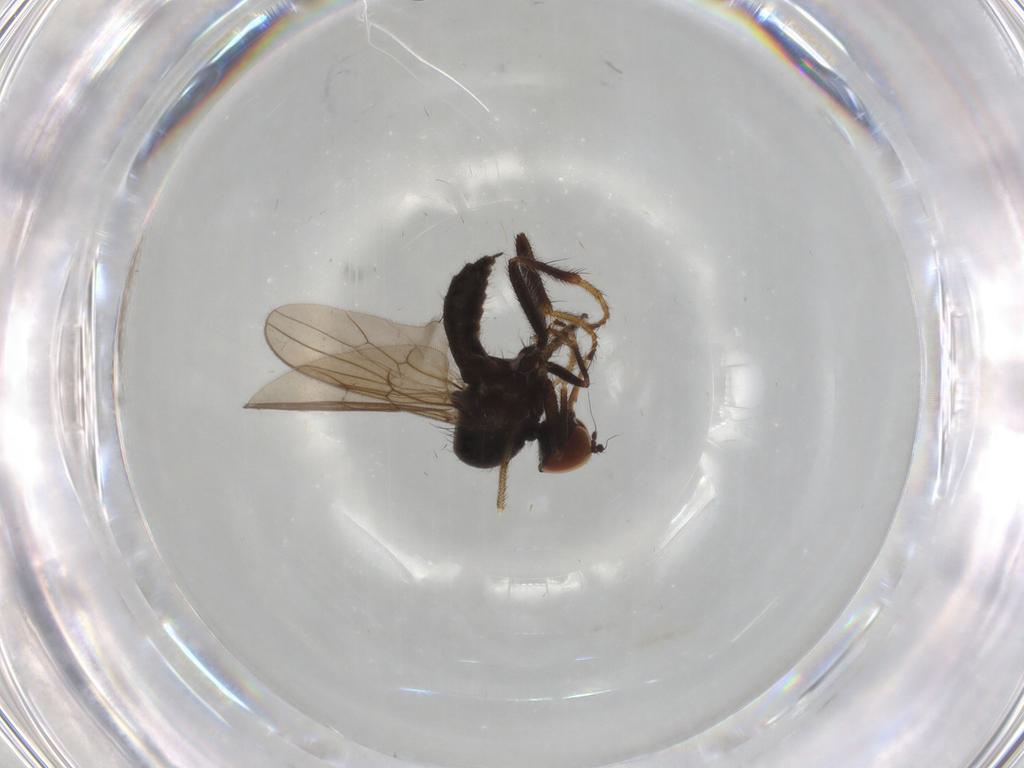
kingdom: Animalia
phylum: Arthropoda
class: Insecta
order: Diptera
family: Hybotidae
